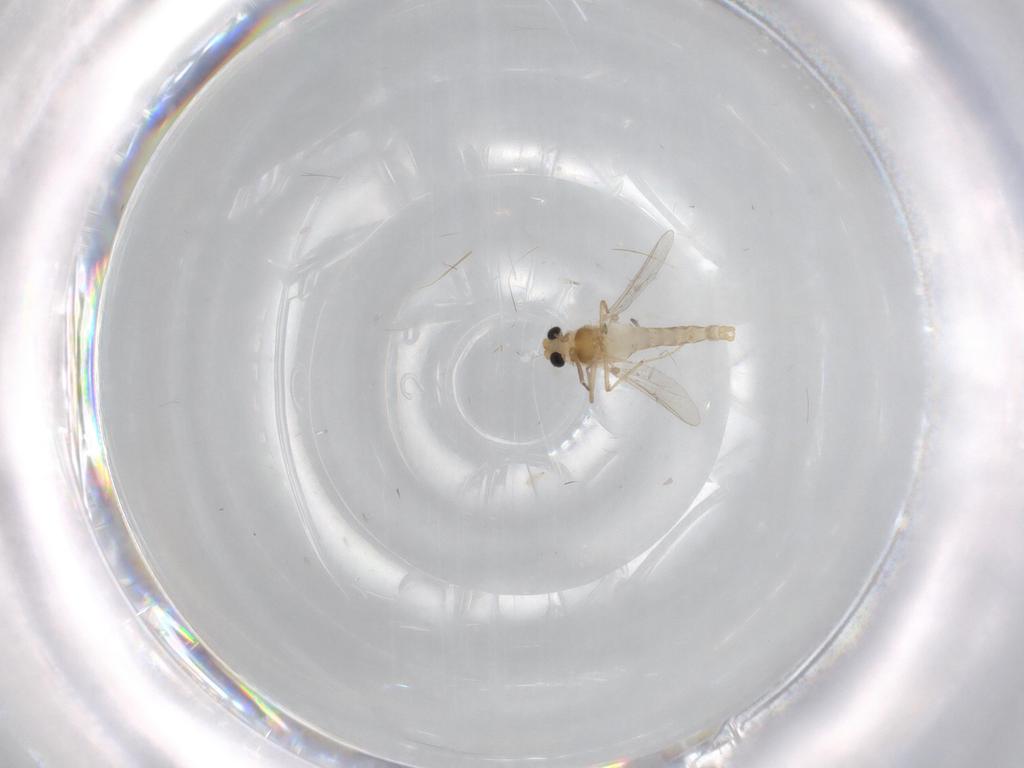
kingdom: Animalia
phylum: Arthropoda
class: Insecta
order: Diptera
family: Chironomidae
